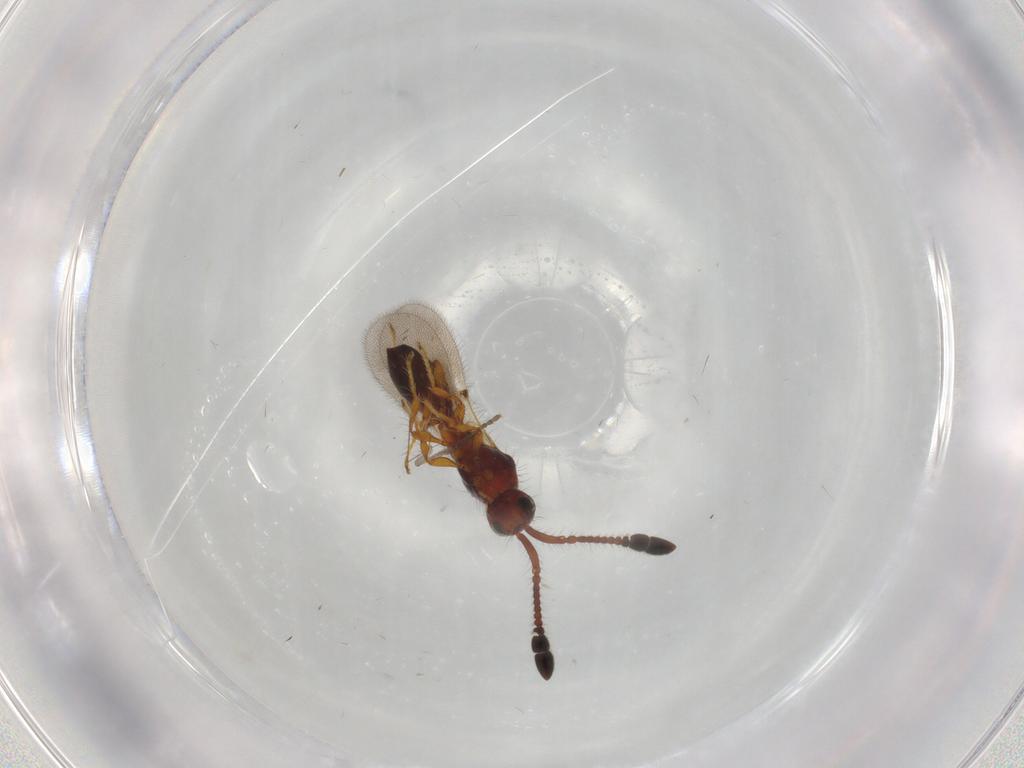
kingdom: Animalia
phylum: Arthropoda
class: Insecta
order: Hymenoptera
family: Diapriidae
